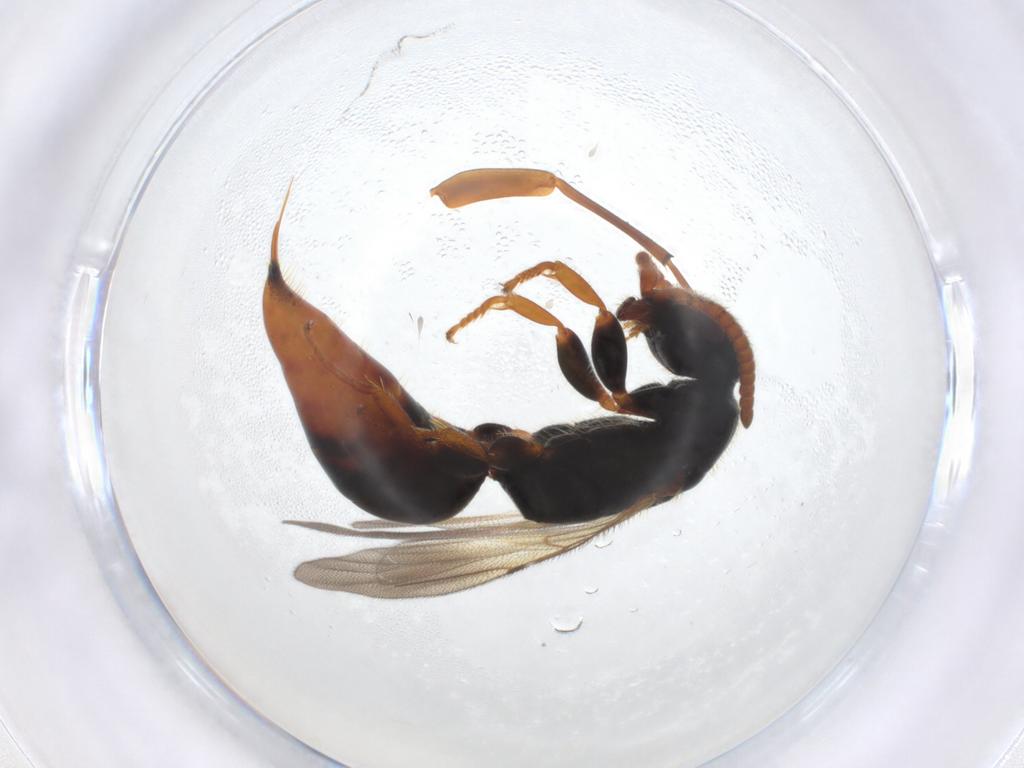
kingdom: Animalia
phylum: Arthropoda
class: Insecta
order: Hymenoptera
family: Bethylidae
